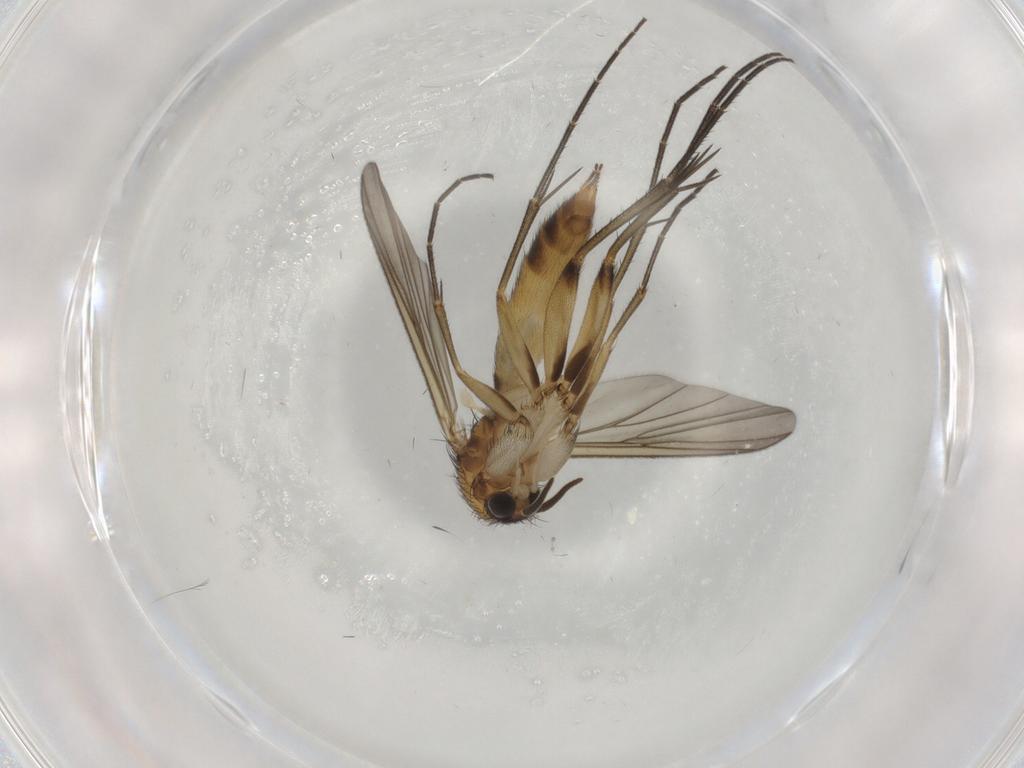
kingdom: Animalia
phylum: Arthropoda
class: Insecta
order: Diptera
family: Mycetophilidae
